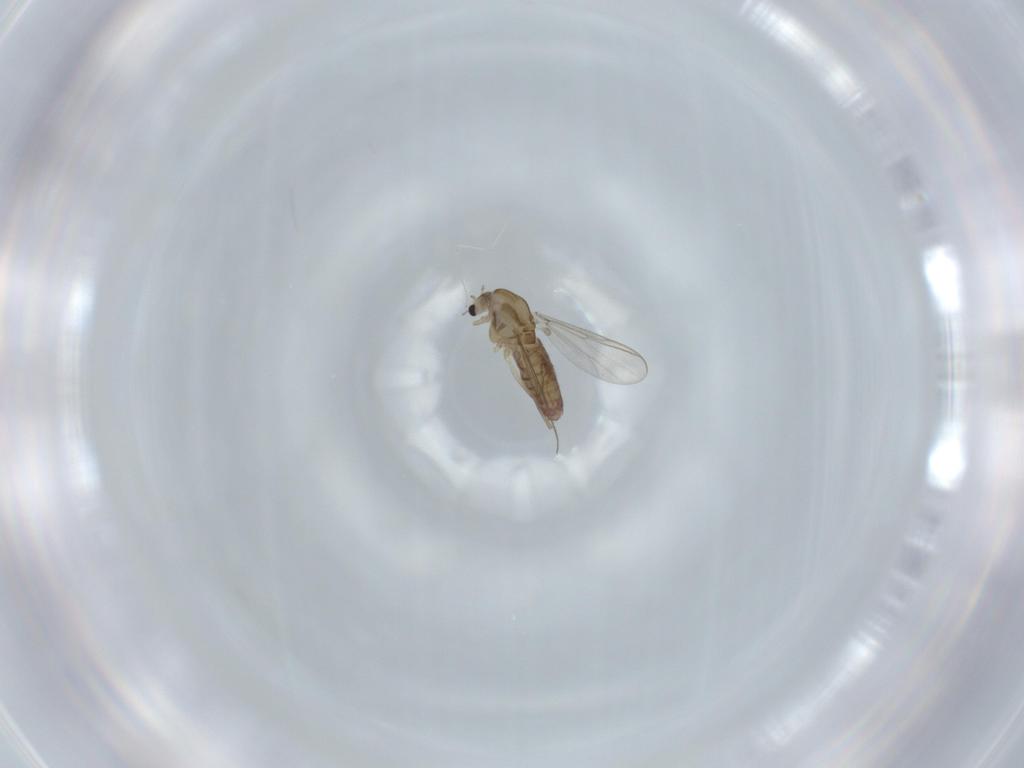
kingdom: Animalia
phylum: Arthropoda
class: Insecta
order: Diptera
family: Chironomidae
